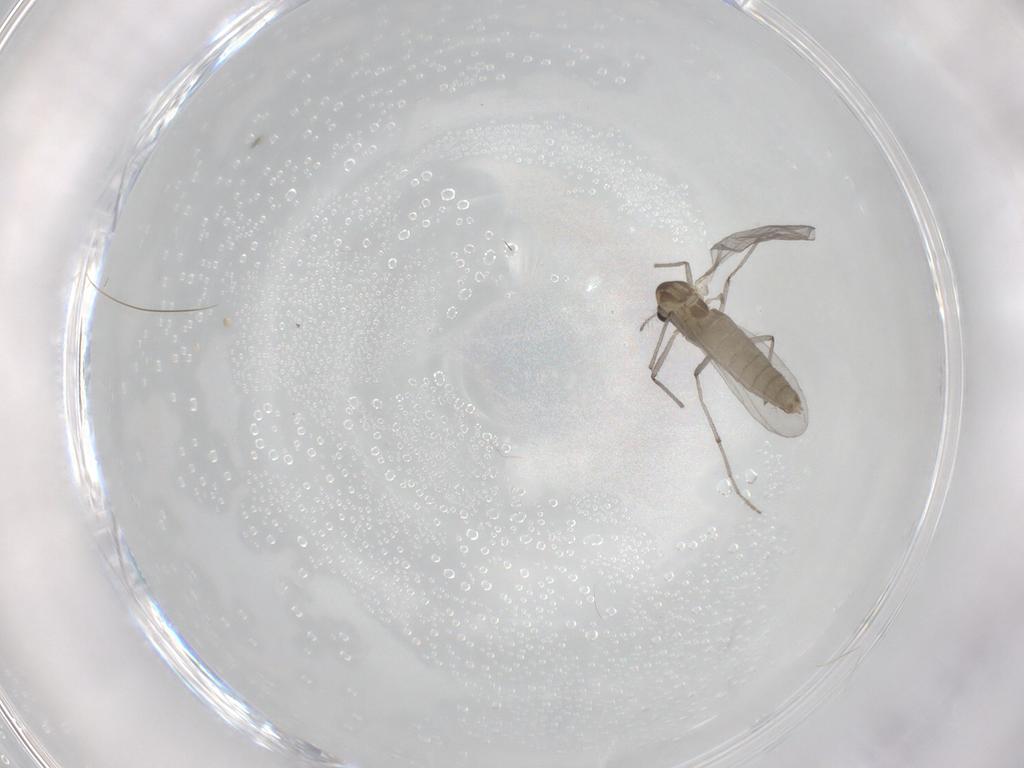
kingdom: Animalia
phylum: Arthropoda
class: Insecta
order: Diptera
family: Chironomidae
